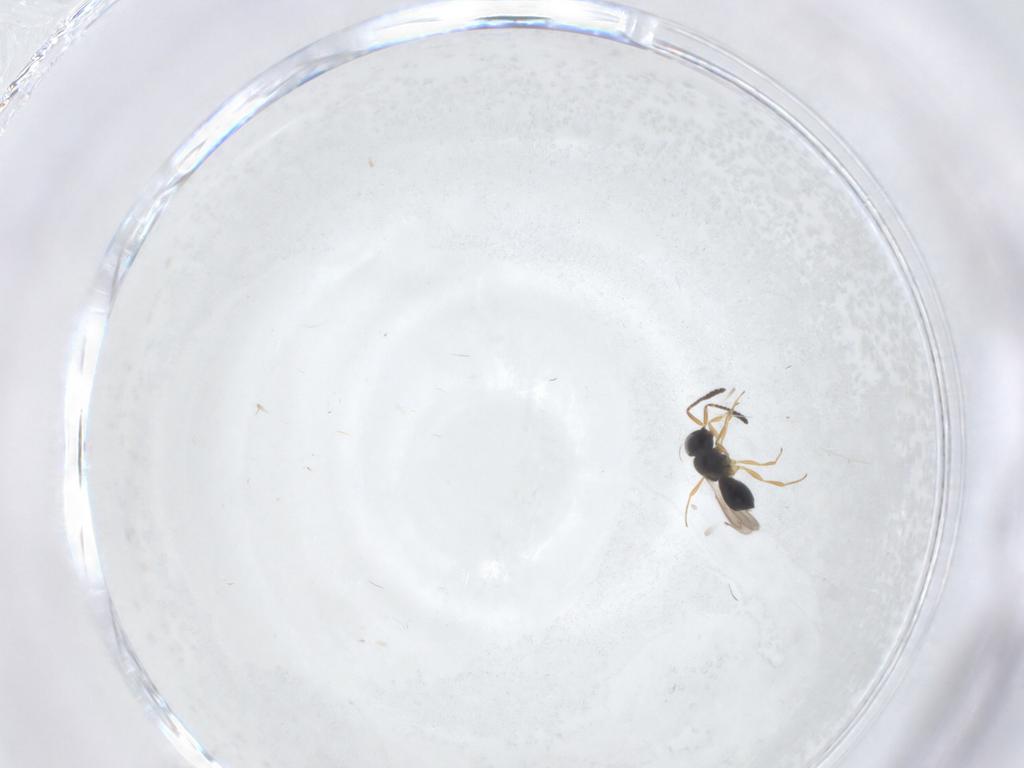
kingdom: Animalia
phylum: Arthropoda
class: Insecta
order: Hymenoptera
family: Scelionidae
